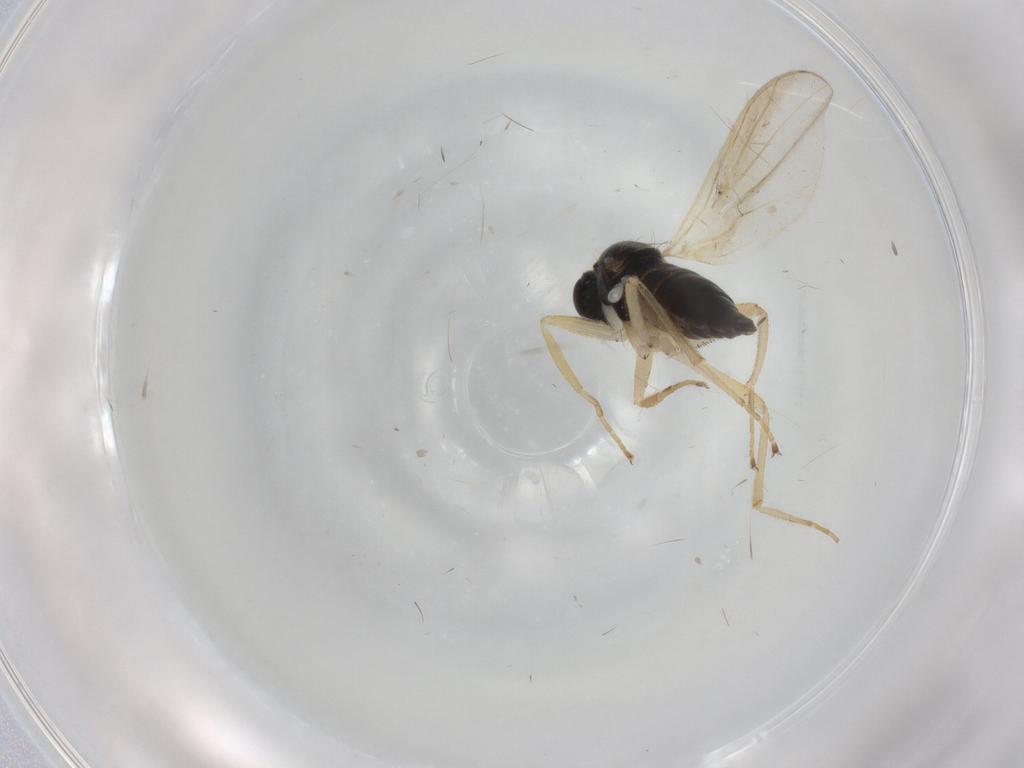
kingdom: Animalia
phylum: Arthropoda
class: Insecta
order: Diptera
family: Hybotidae
